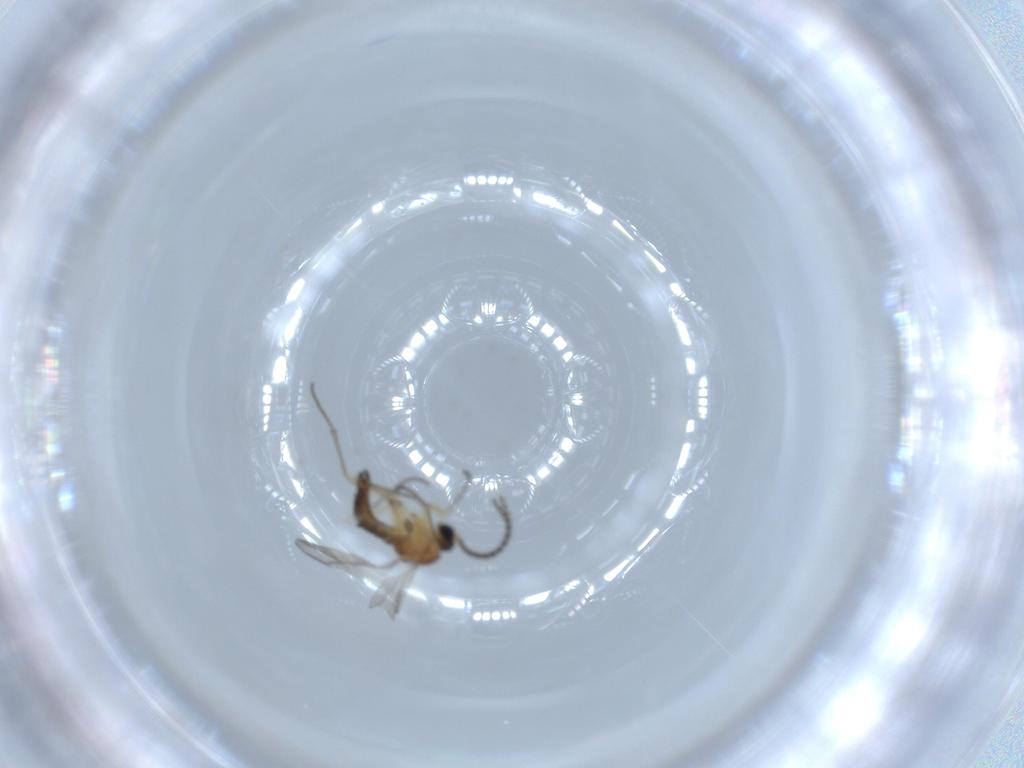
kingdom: Animalia
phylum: Arthropoda
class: Insecta
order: Diptera
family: Sciaridae
